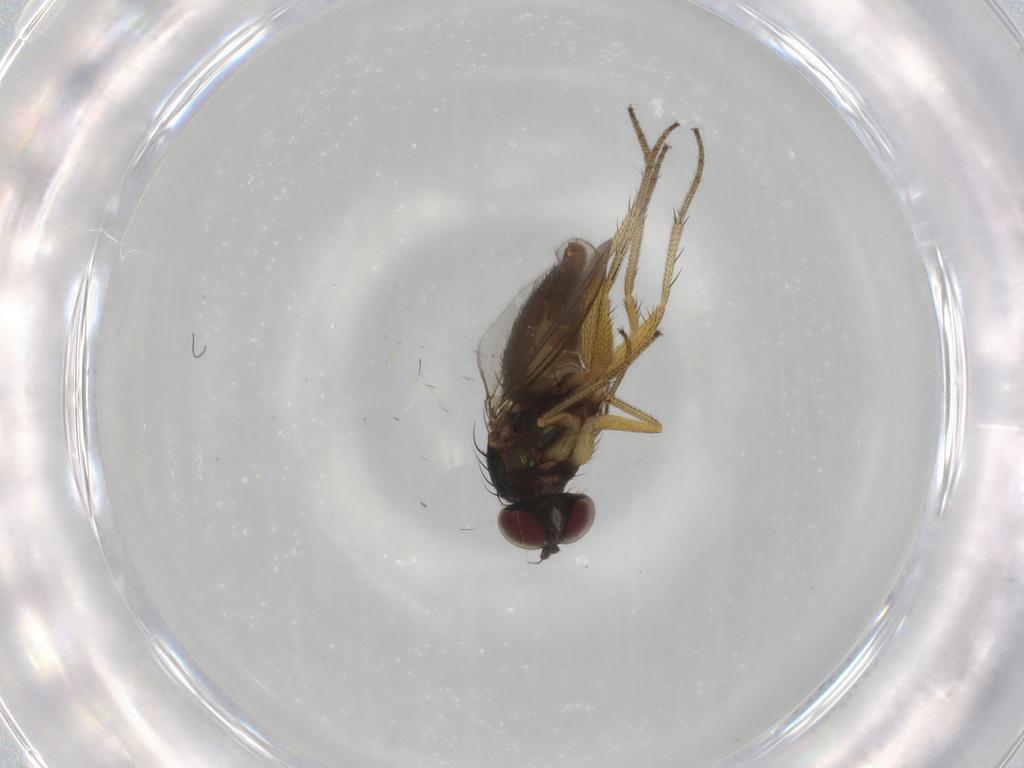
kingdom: Animalia
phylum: Arthropoda
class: Insecta
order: Diptera
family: Dolichopodidae
